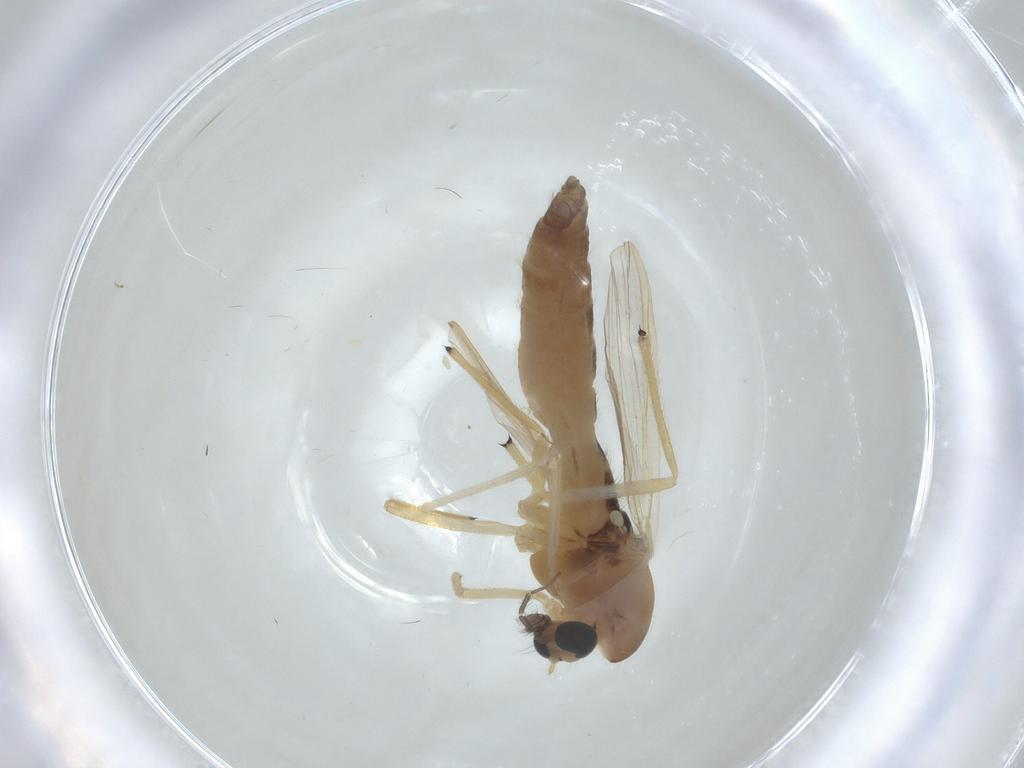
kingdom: Animalia
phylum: Arthropoda
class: Insecta
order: Diptera
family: Chironomidae
